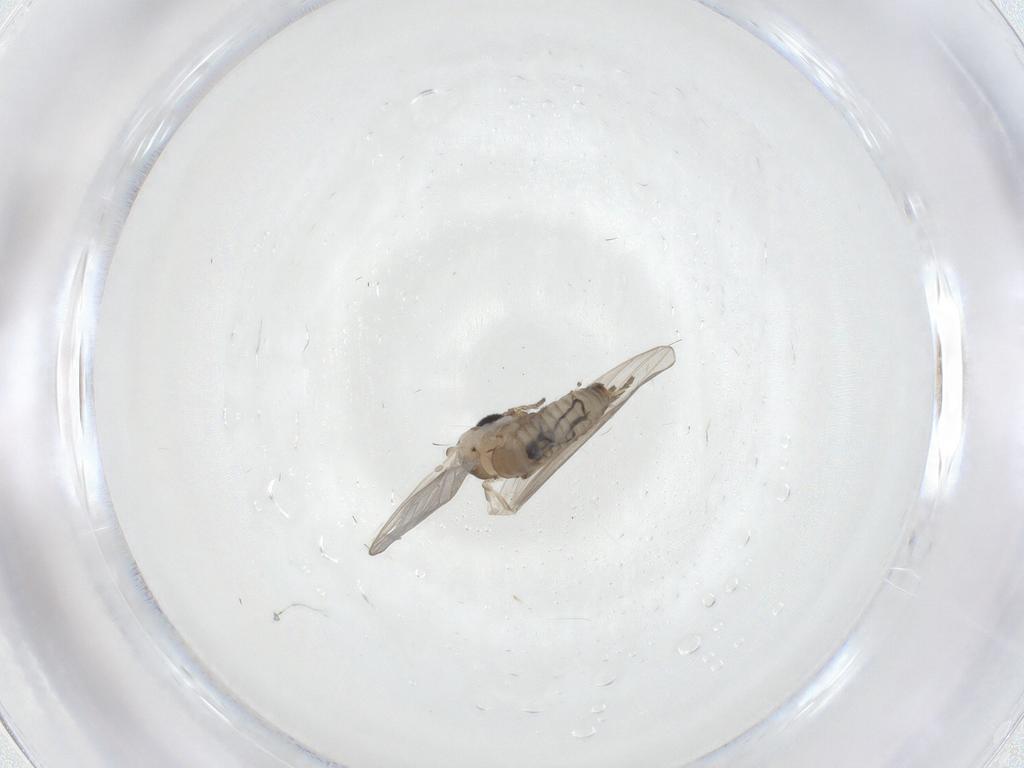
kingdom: Animalia
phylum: Arthropoda
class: Insecta
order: Diptera
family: Psychodidae
